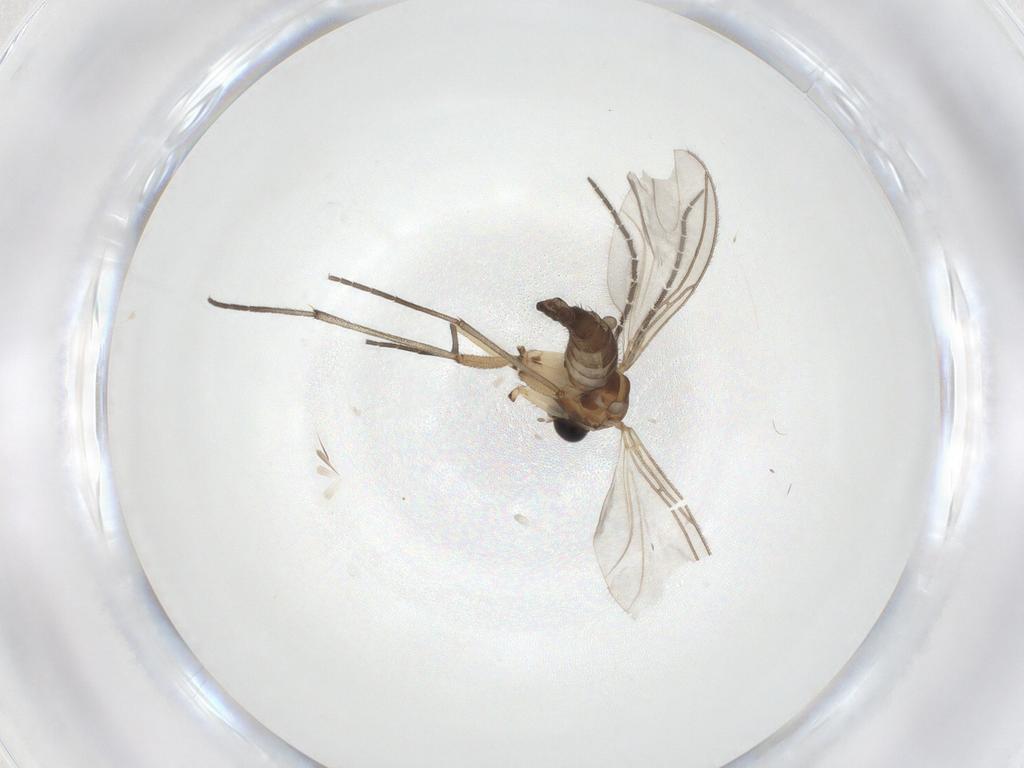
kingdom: Animalia
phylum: Arthropoda
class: Insecta
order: Diptera
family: Sciaridae
